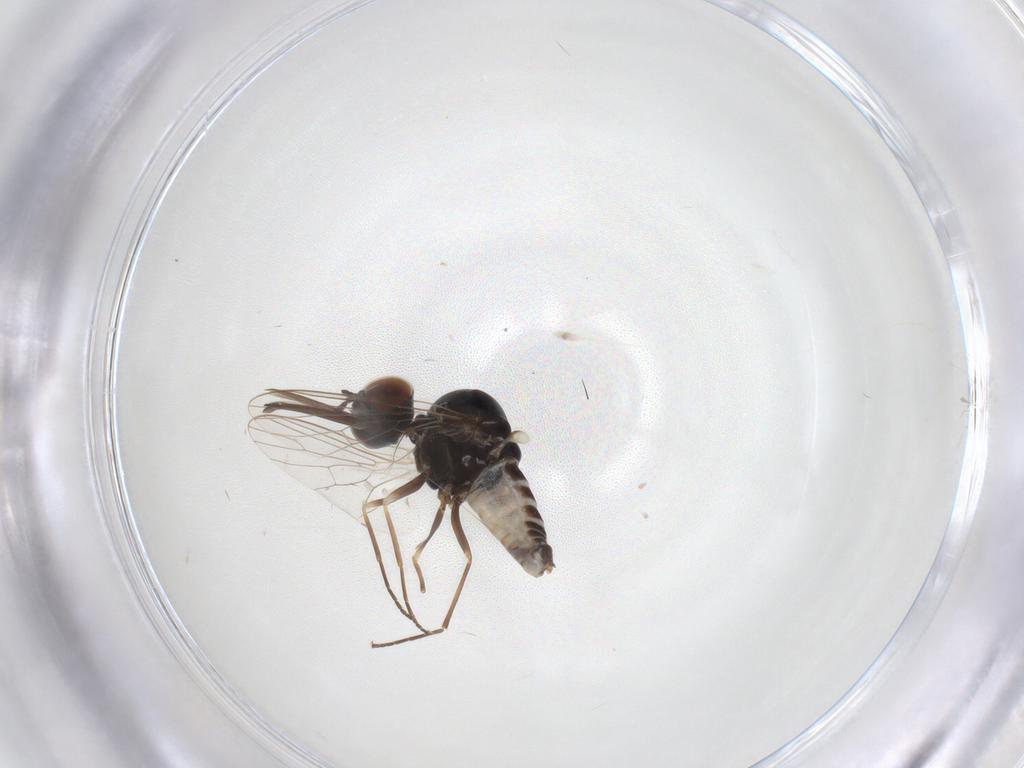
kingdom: Animalia
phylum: Arthropoda
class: Insecta
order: Diptera
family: Bombyliidae
